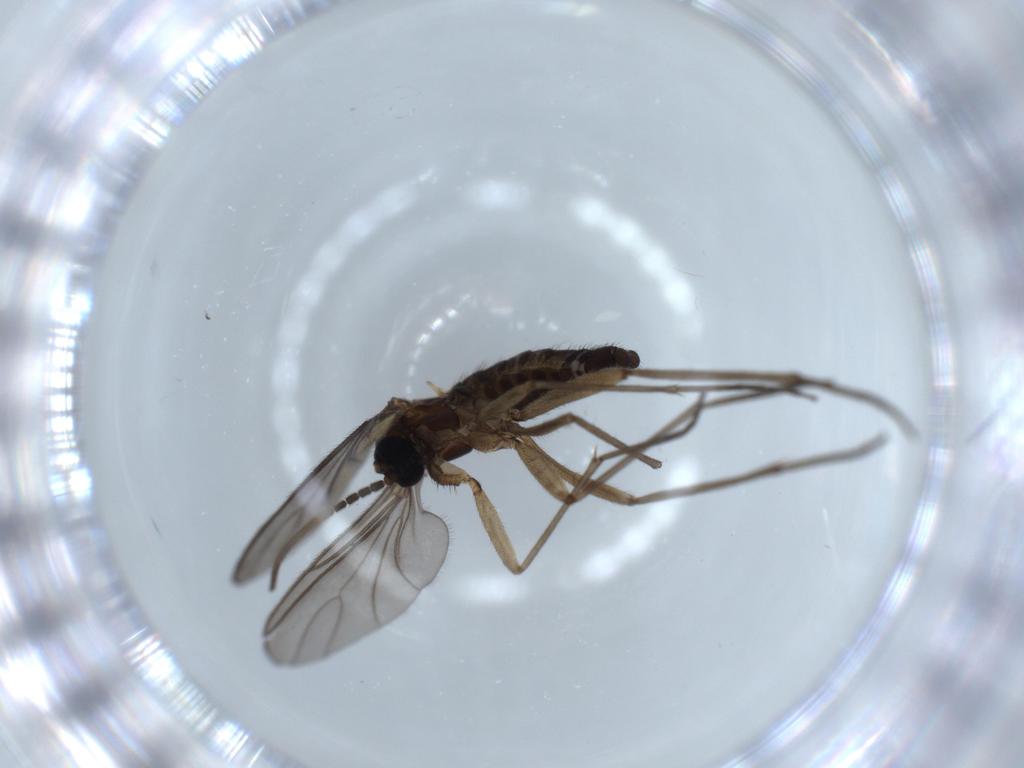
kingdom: Animalia
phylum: Arthropoda
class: Insecta
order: Diptera
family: Sciaridae
